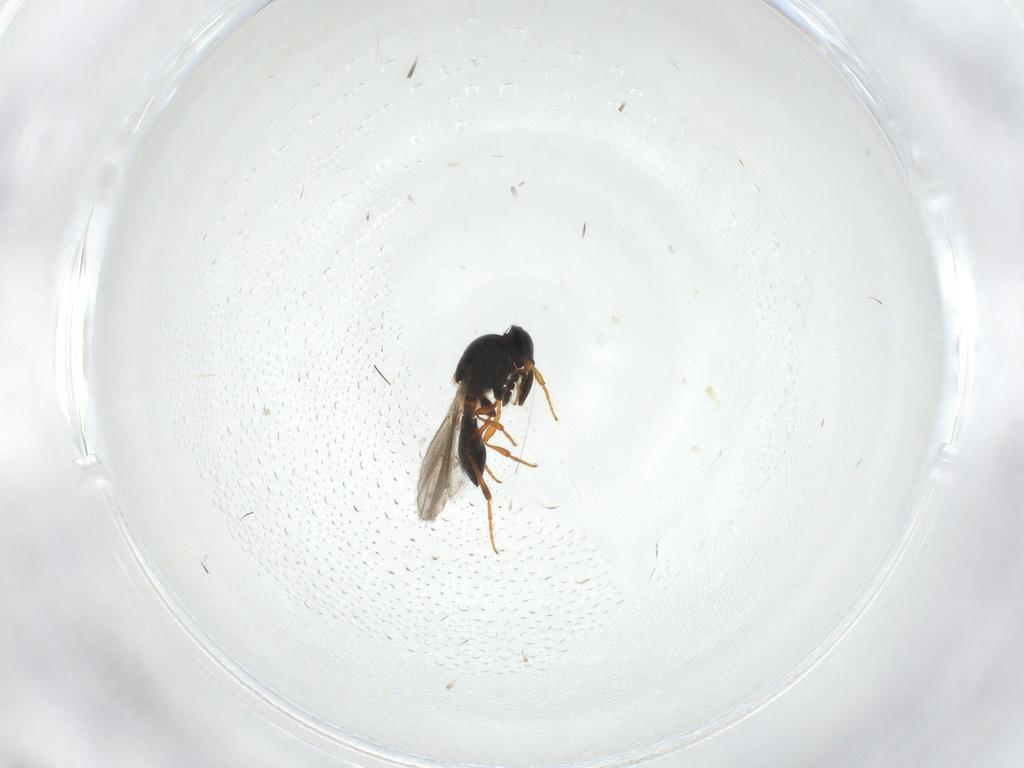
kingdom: Animalia
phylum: Arthropoda
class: Insecta
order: Hymenoptera
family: Platygastridae
